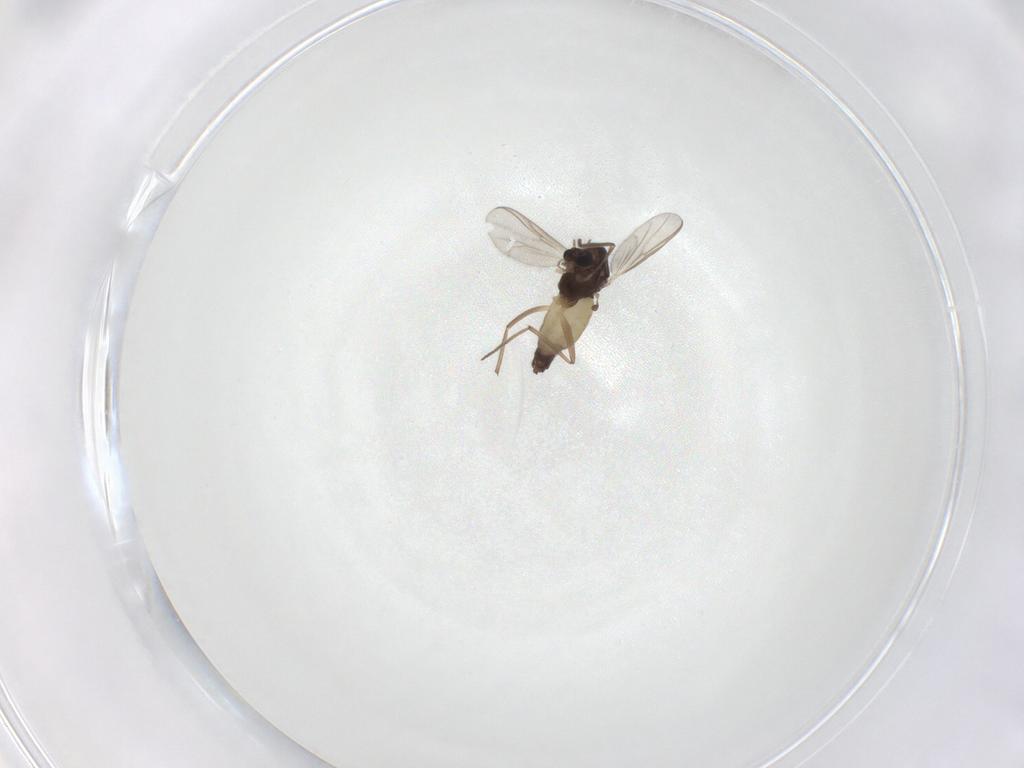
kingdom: Animalia
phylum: Arthropoda
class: Insecta
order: Diptera
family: Chironomidae
